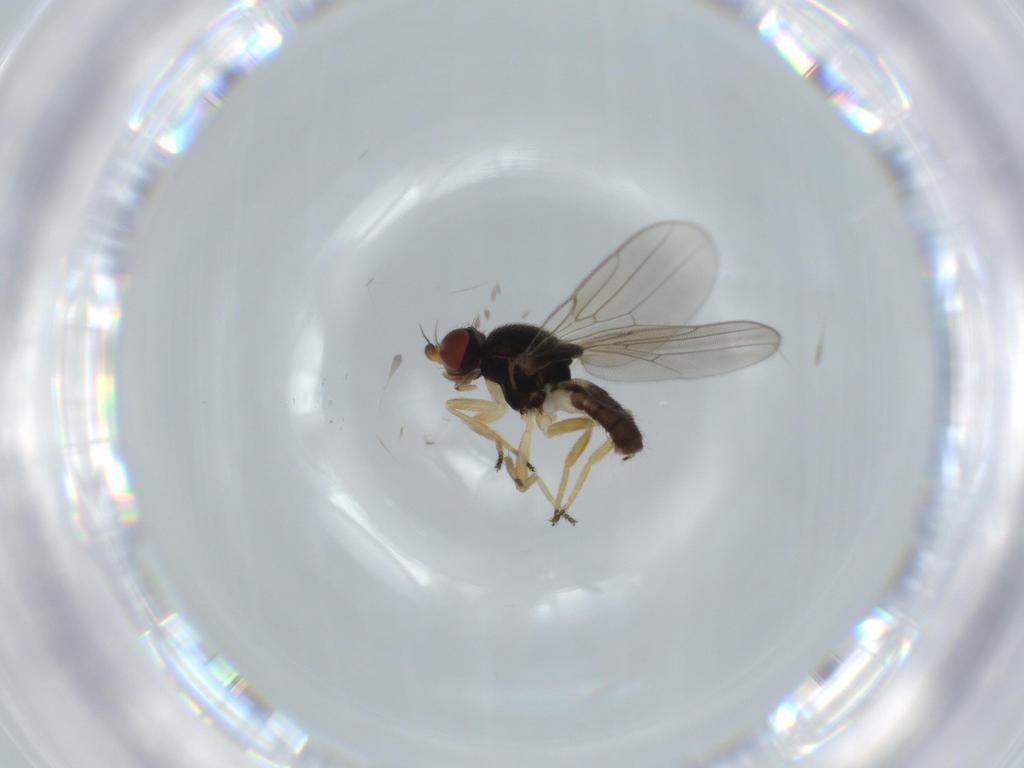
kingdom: Animalia
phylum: Arthropoda
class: Insecta
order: Diptera
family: Chloropidae
